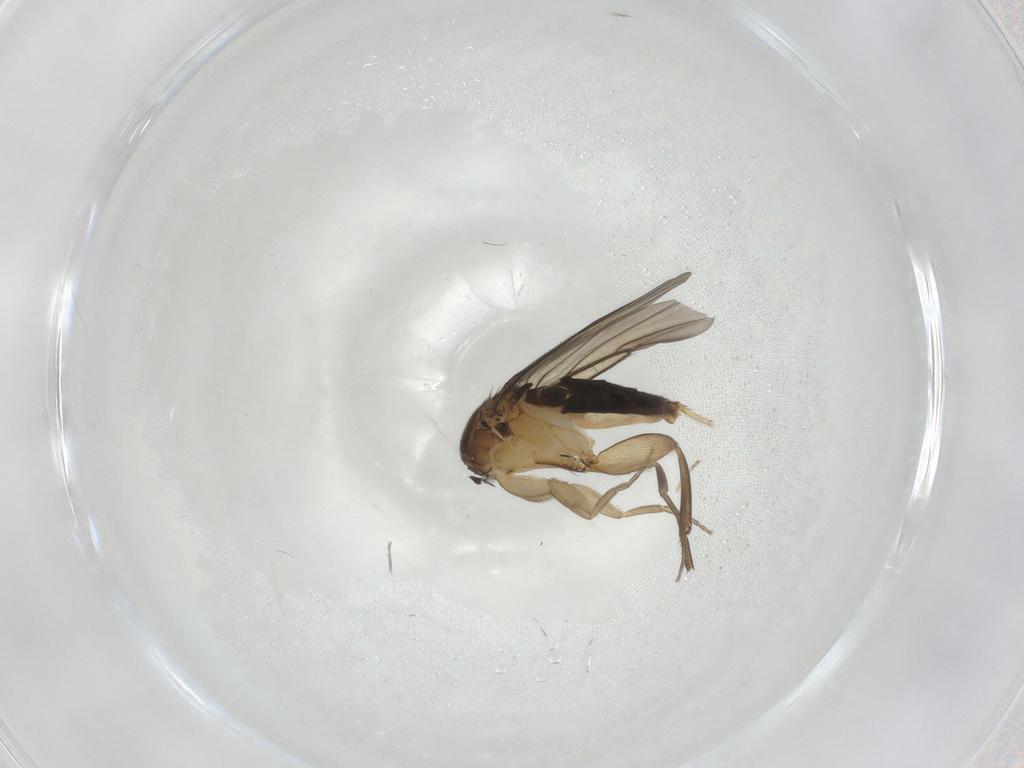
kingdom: Animalia
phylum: Arthropoda
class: Insecta
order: Diptera
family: Phoridae
